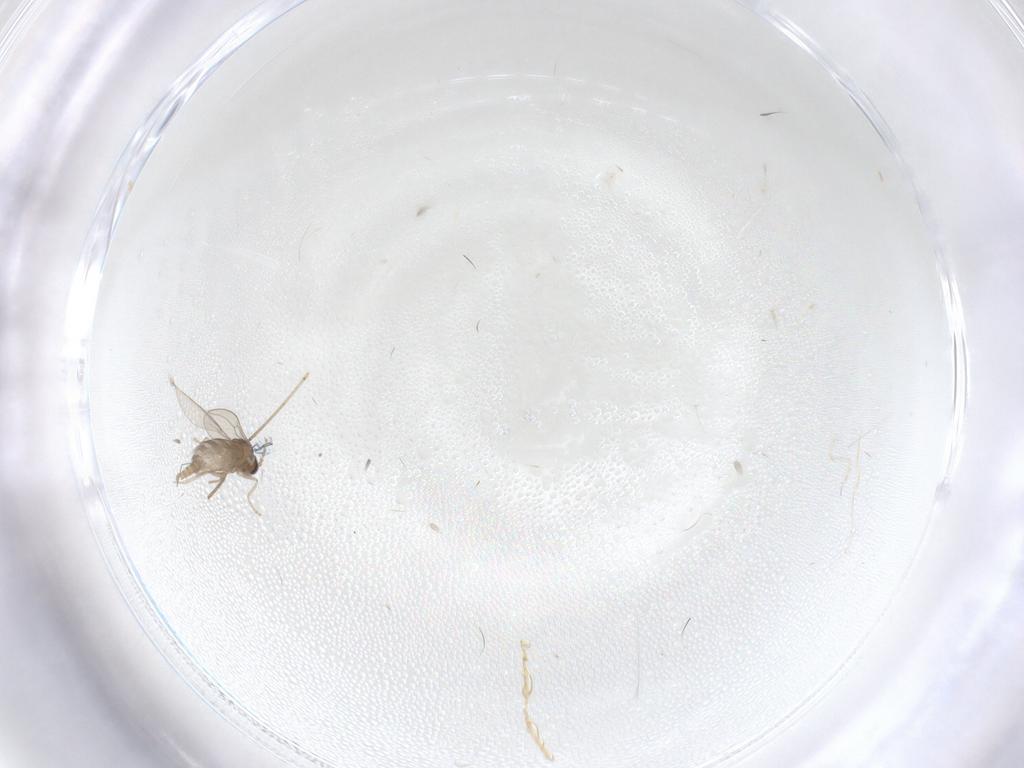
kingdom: Animalia
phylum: Arthropoda
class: Insecta
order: Diptera
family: Cecidomyiidae
